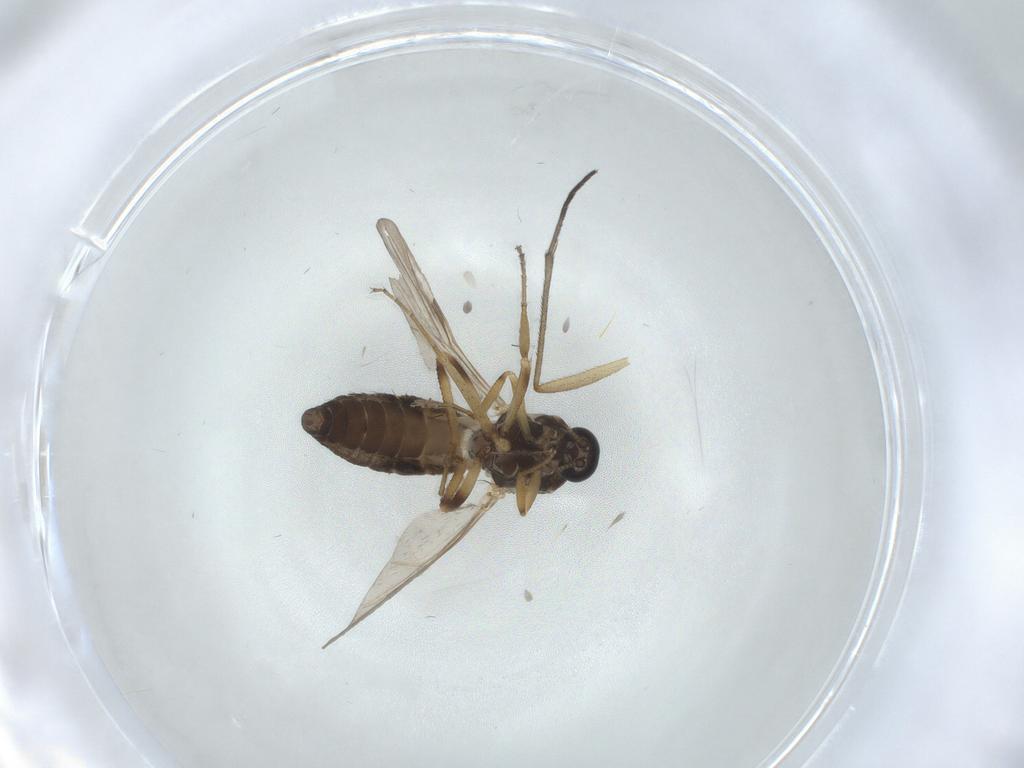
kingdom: Animalia
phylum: Arthropoda
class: Insecta
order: Diptera
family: Ceratopogonidae
